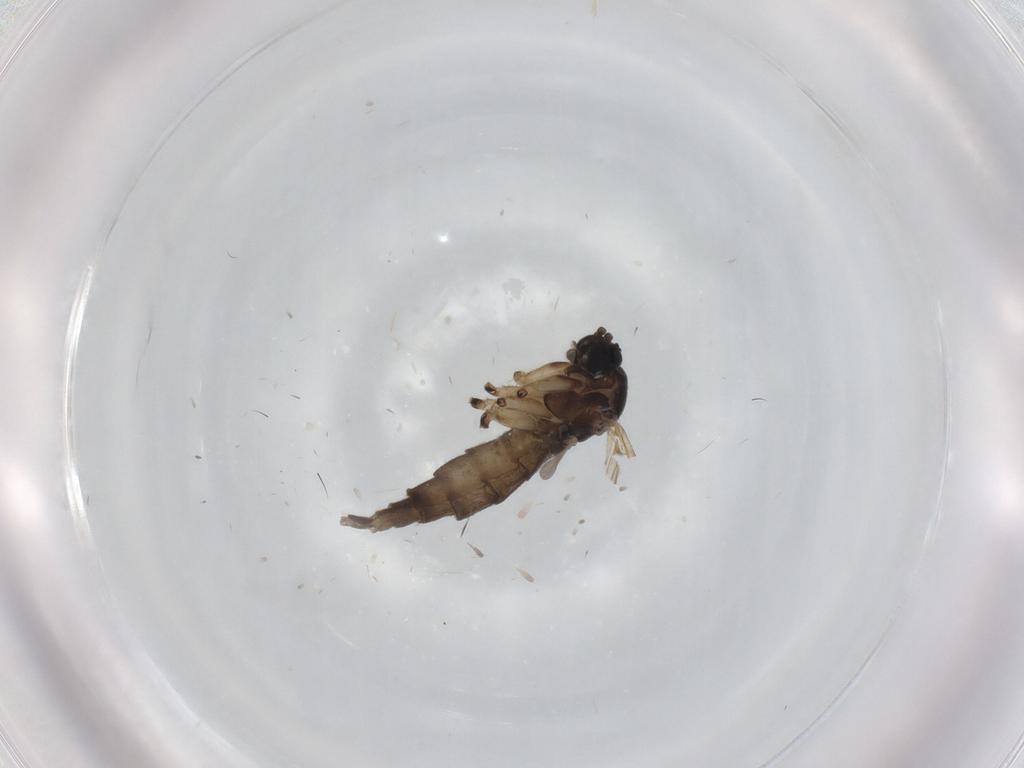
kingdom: Animalia
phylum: Arthropoda
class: Insecta
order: Diptera
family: Sciaridae
